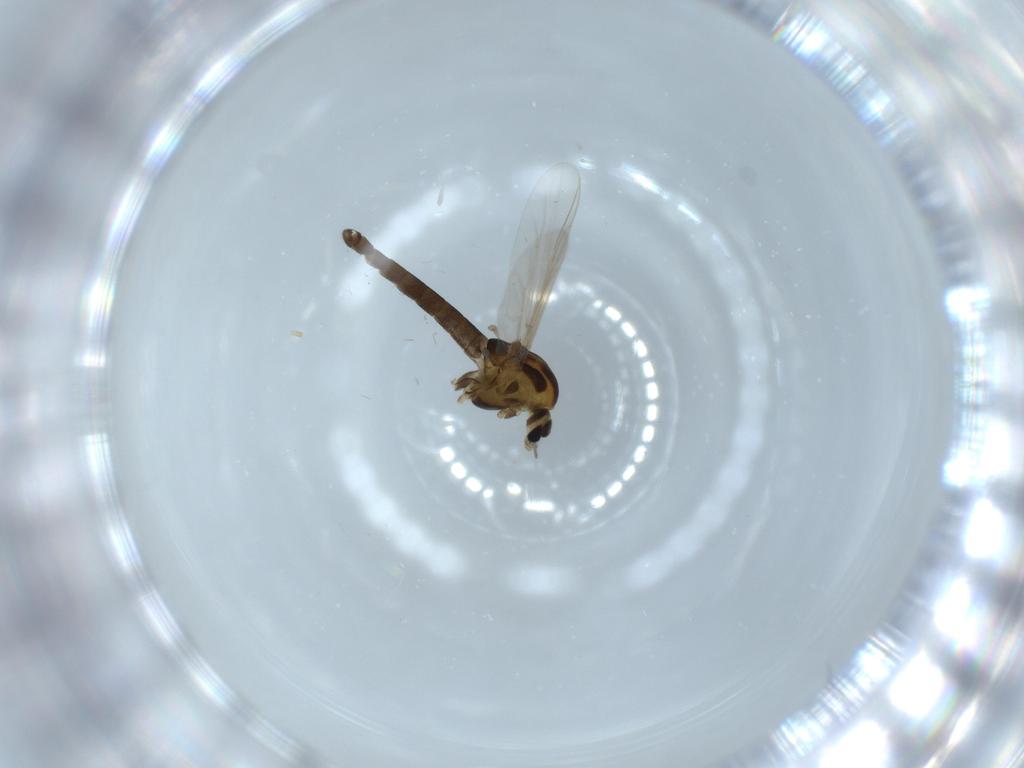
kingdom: Animalia
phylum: Arthropoda
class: Insecta
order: Diptera
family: Chironomidae
